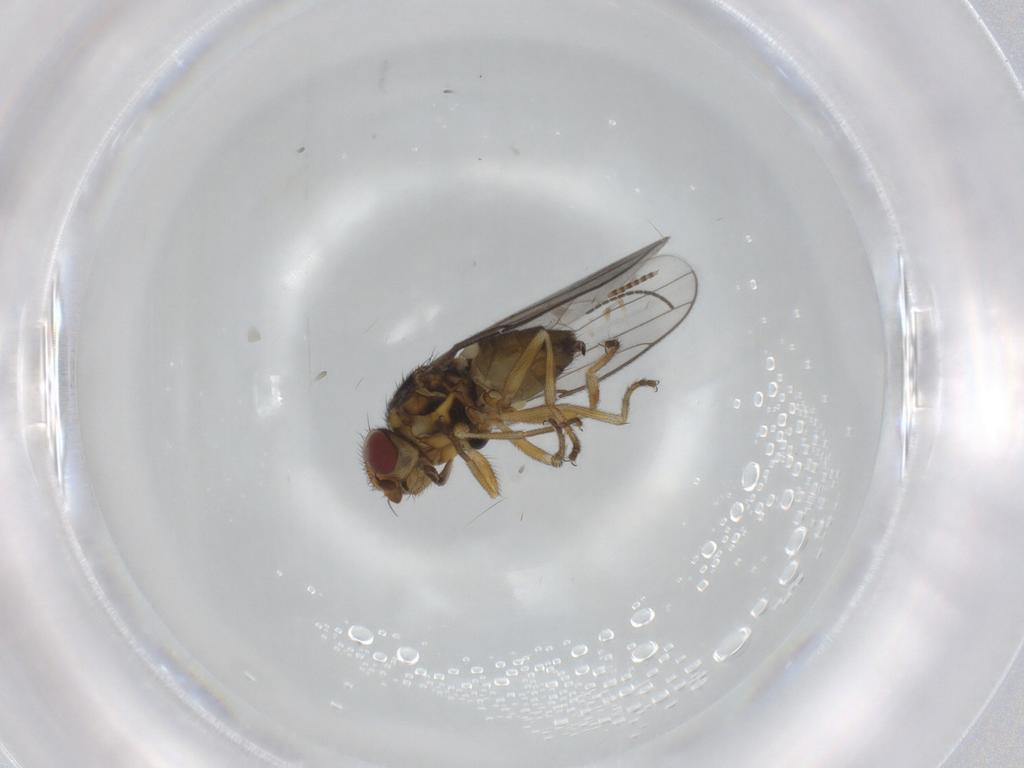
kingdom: Animalia
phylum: Arthropoda
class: Insecta
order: Diptera
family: Chloropidae
